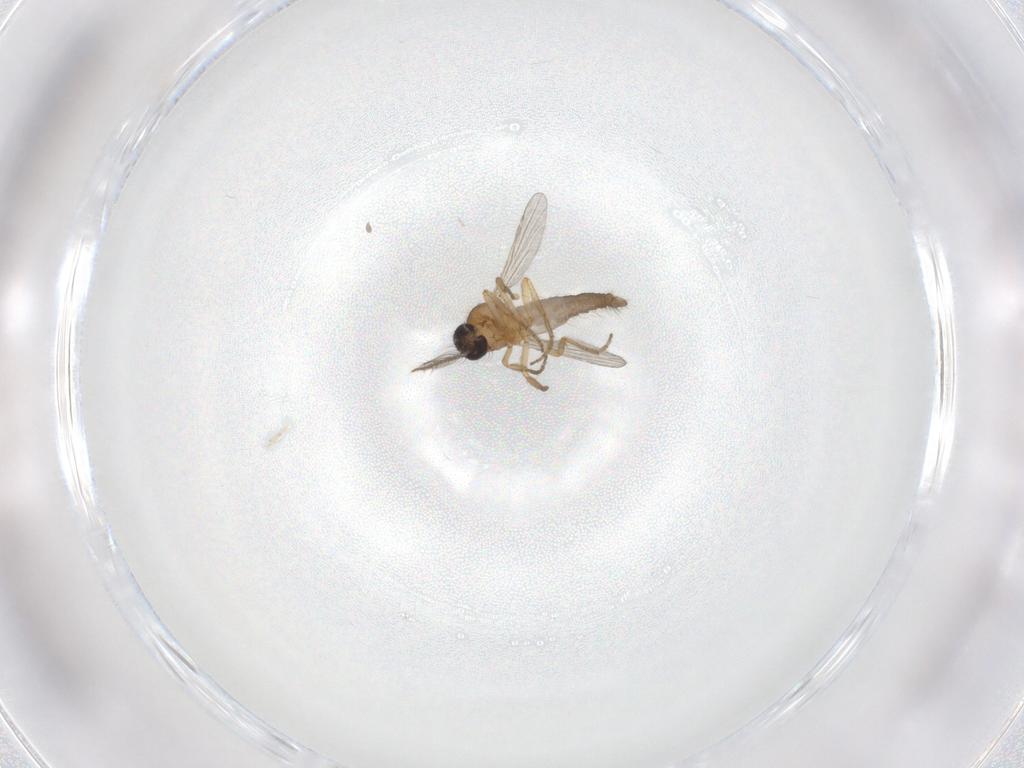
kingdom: Animalia
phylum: Arthropoda
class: Insecta
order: Diptera
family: Ceratopogonidae
